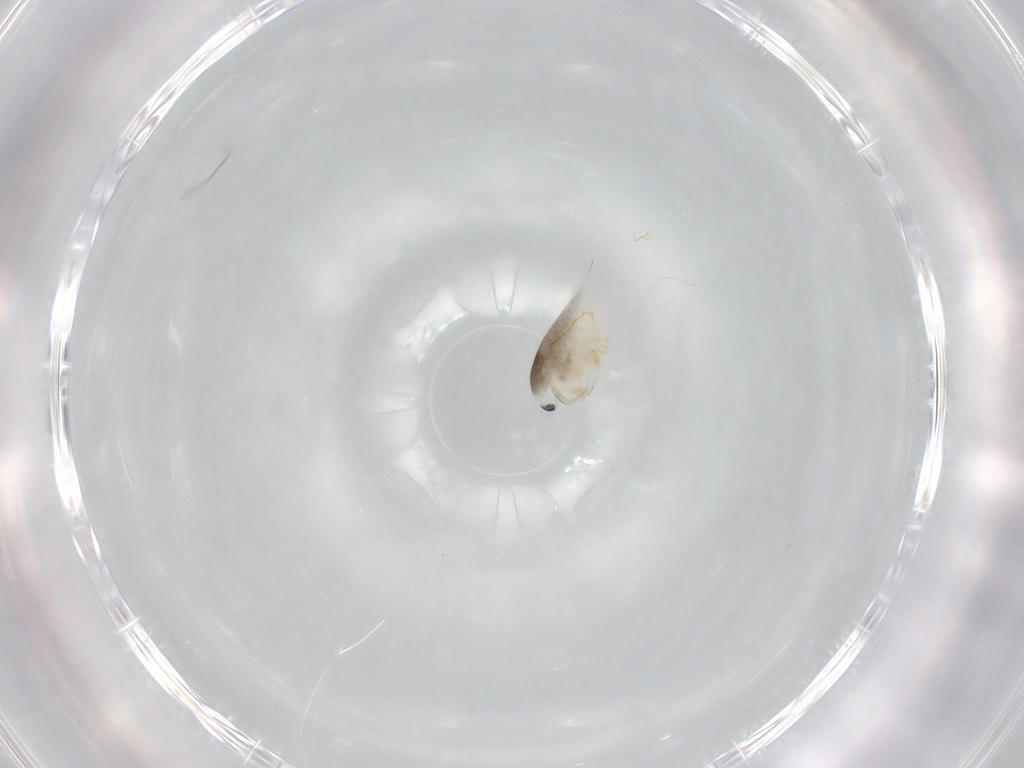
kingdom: Animalia
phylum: Arthropoda
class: Branchiopoda
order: Diplostraca
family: Daphniidae
